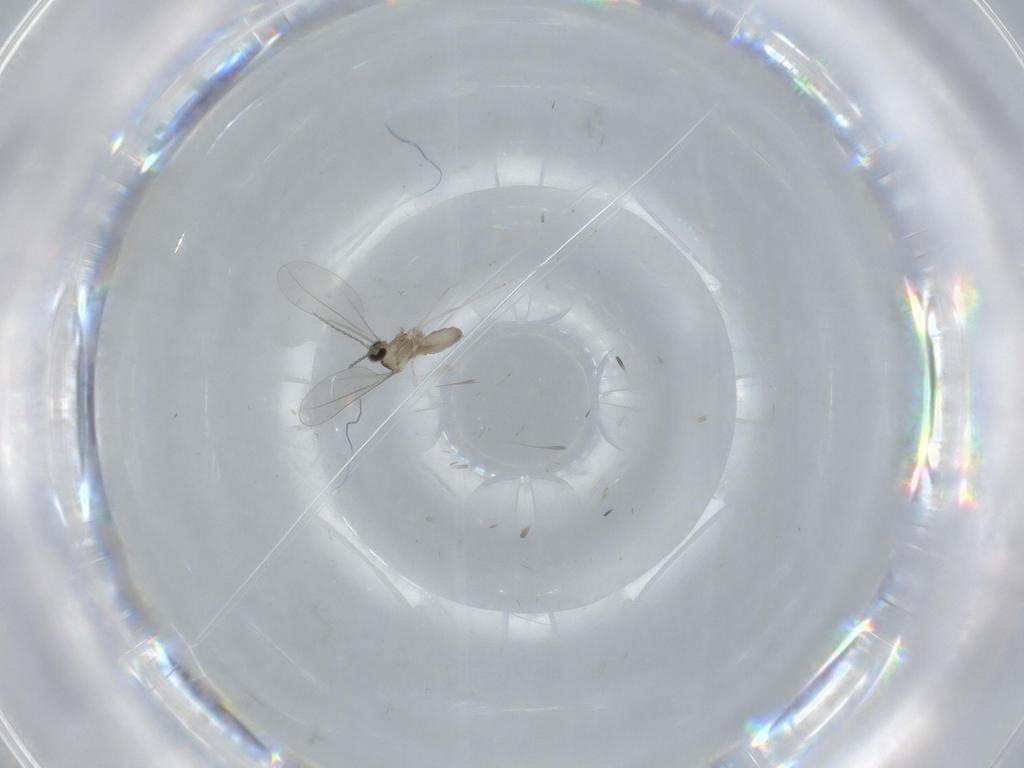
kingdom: Animalia
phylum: Arthropoda
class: Insecta
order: Diptera
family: Cecidomyiidae
